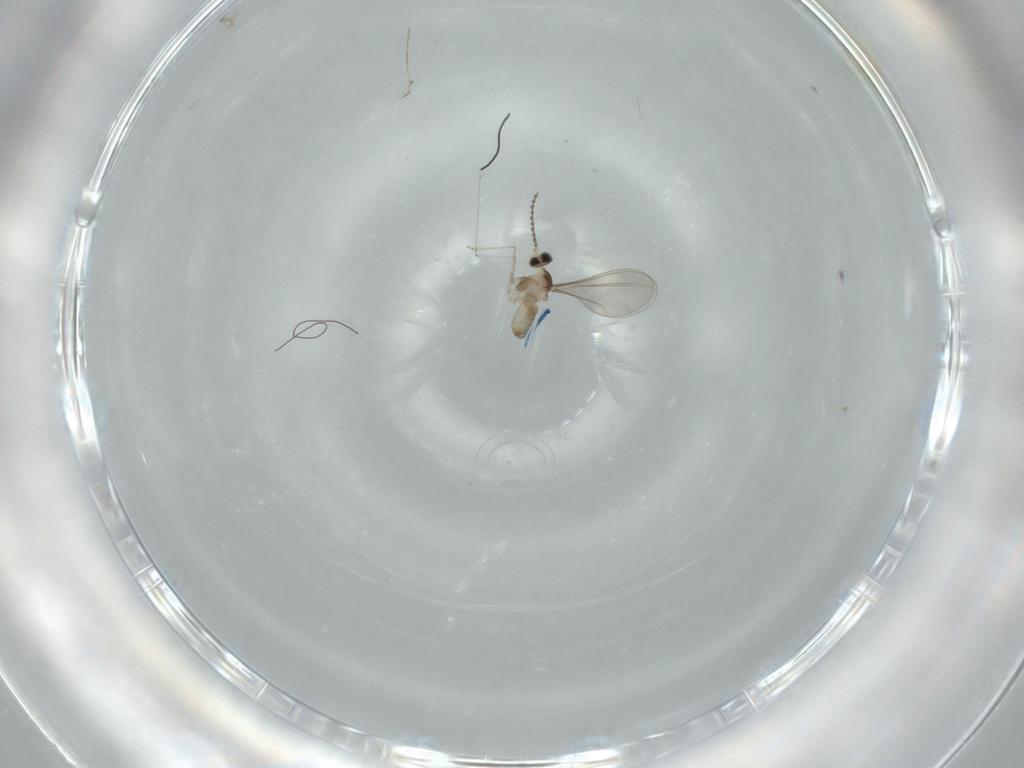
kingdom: Animalia
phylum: Arthropoda
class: Insecta
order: Diptera
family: Cecidomyiidae
